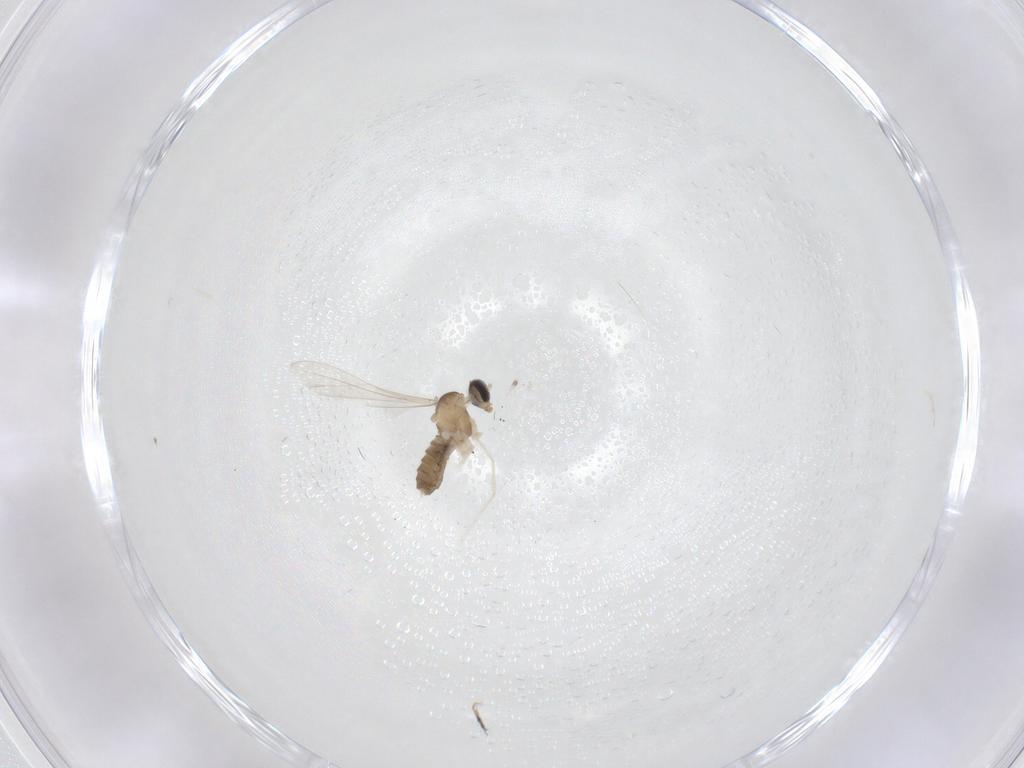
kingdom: Animalia
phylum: Arthropoda
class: Insecta
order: Diptera
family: Cecidomyiidae
